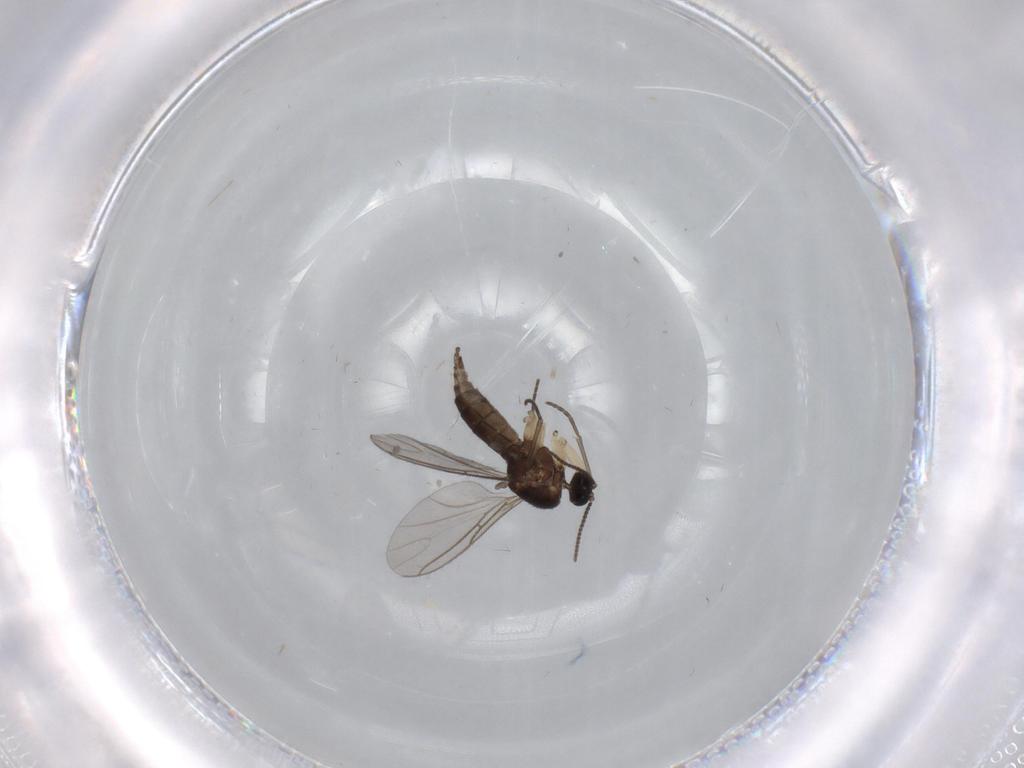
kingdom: Animalia
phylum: Arthropoda
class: Insecta
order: Diptera
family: Sciaridae
